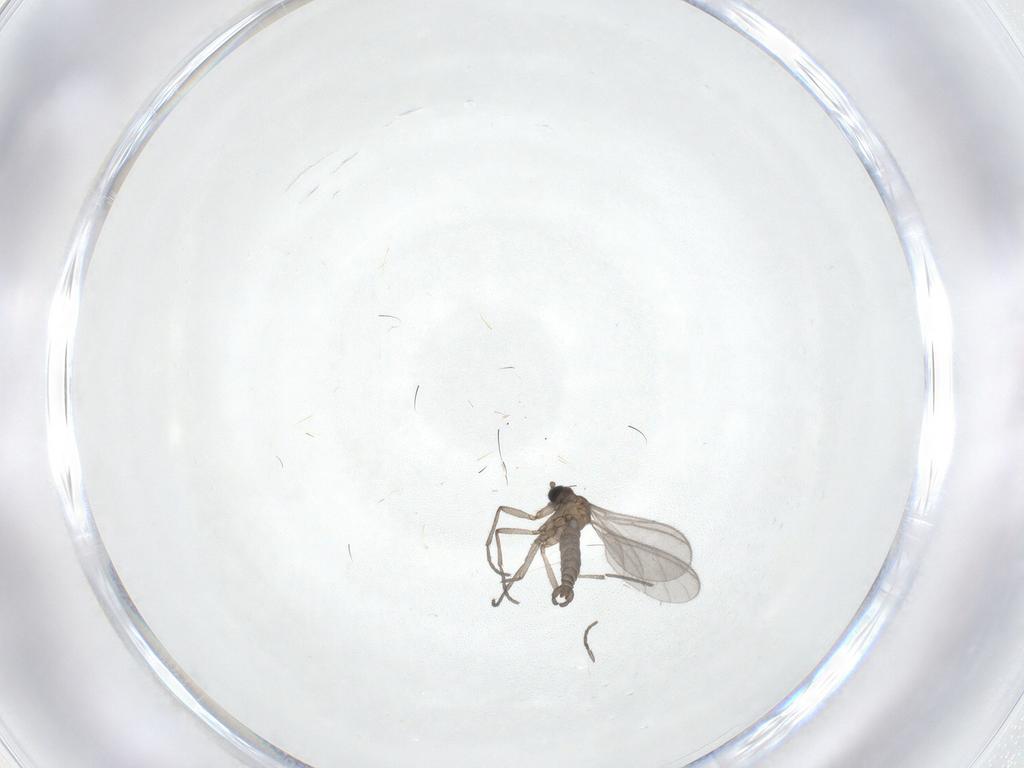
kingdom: Animalia
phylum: Arthropoda
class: Insecta
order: Diptera
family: Sciaridae
